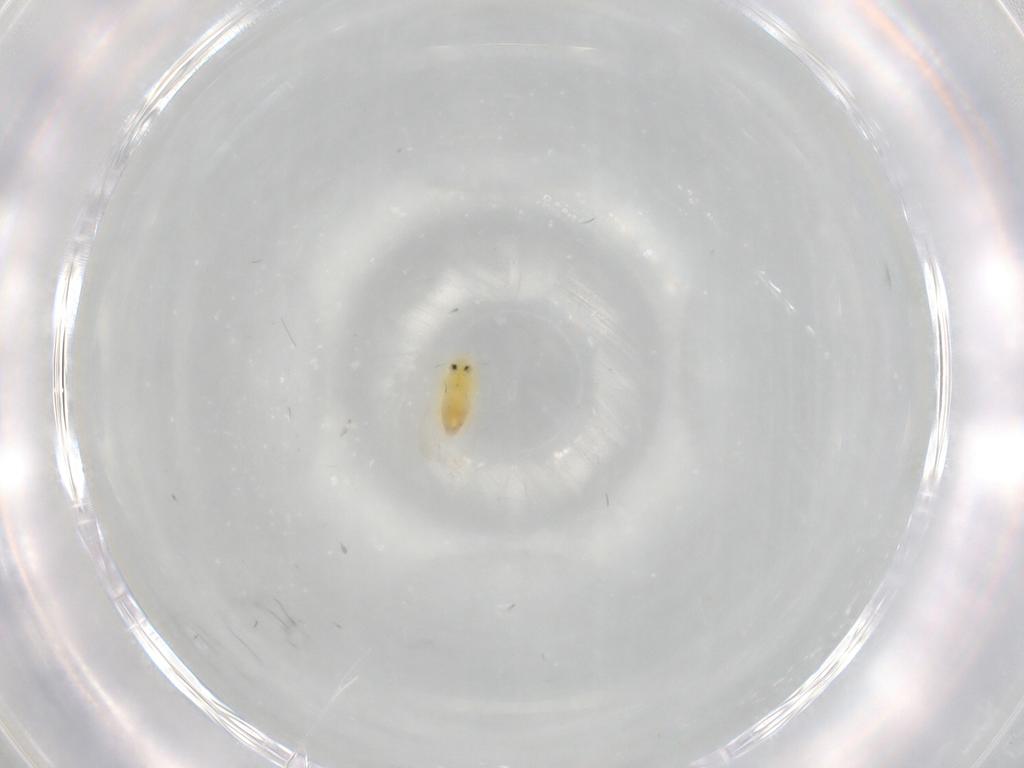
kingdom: Animalia
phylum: Arthropoda
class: Insecta
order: Hemiptera
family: Aleyrodidae
